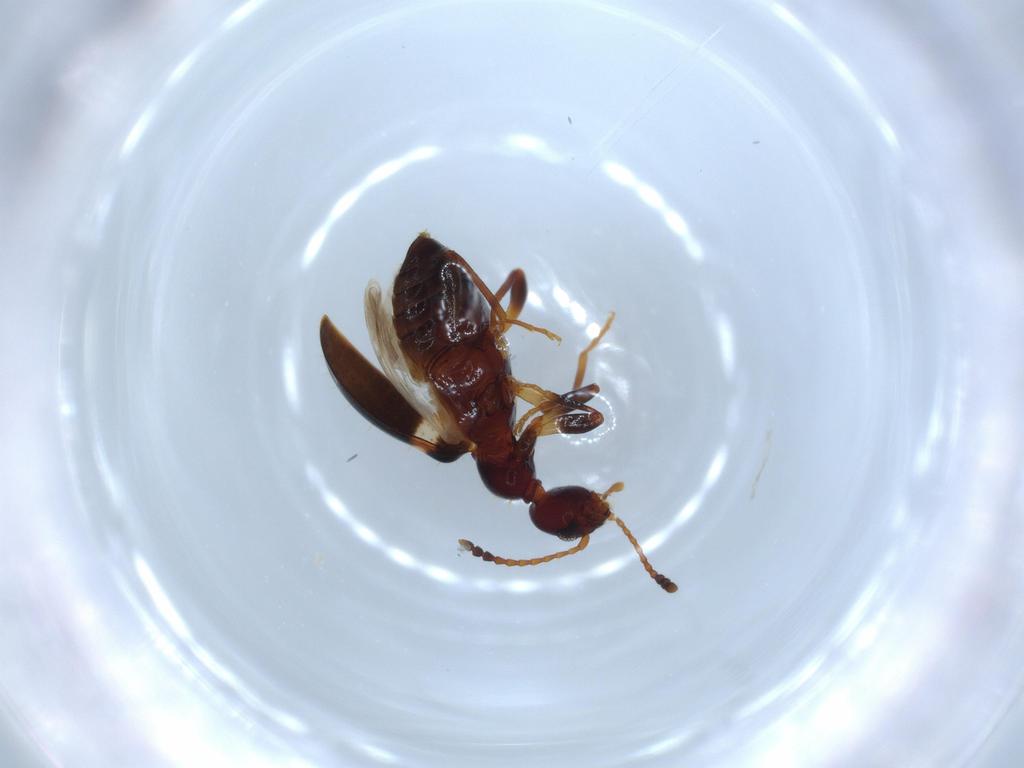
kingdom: Animalia
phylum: Arthropoda
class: Insecta
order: Coleoptera
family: Anthicidae
